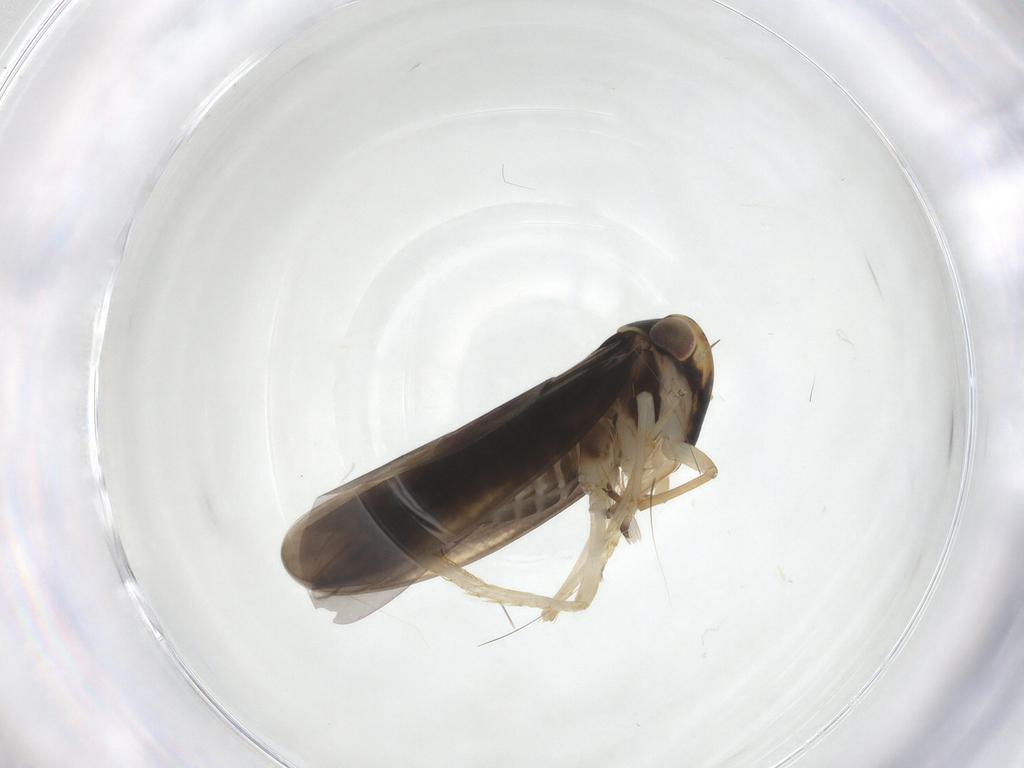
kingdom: Animalia
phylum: Arthropoda
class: Insecta
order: Hemiptera
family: Cicadellidae
